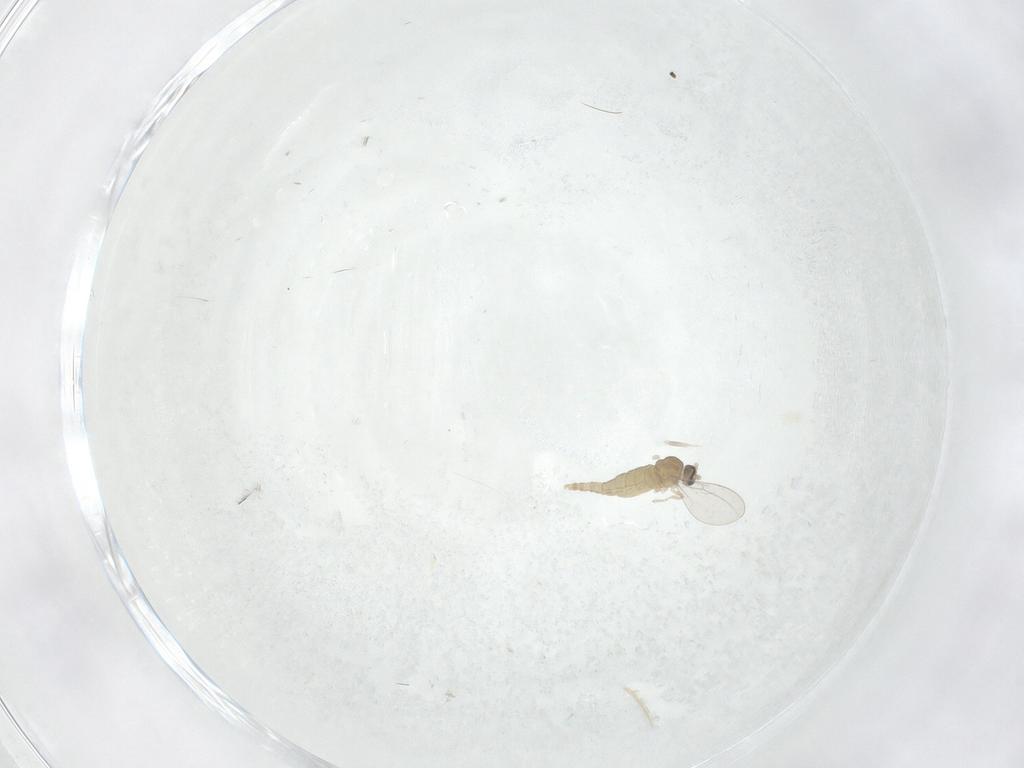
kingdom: Animalia
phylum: Arthropoda
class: Insecta
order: Diptera
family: Cecidomyiidae
